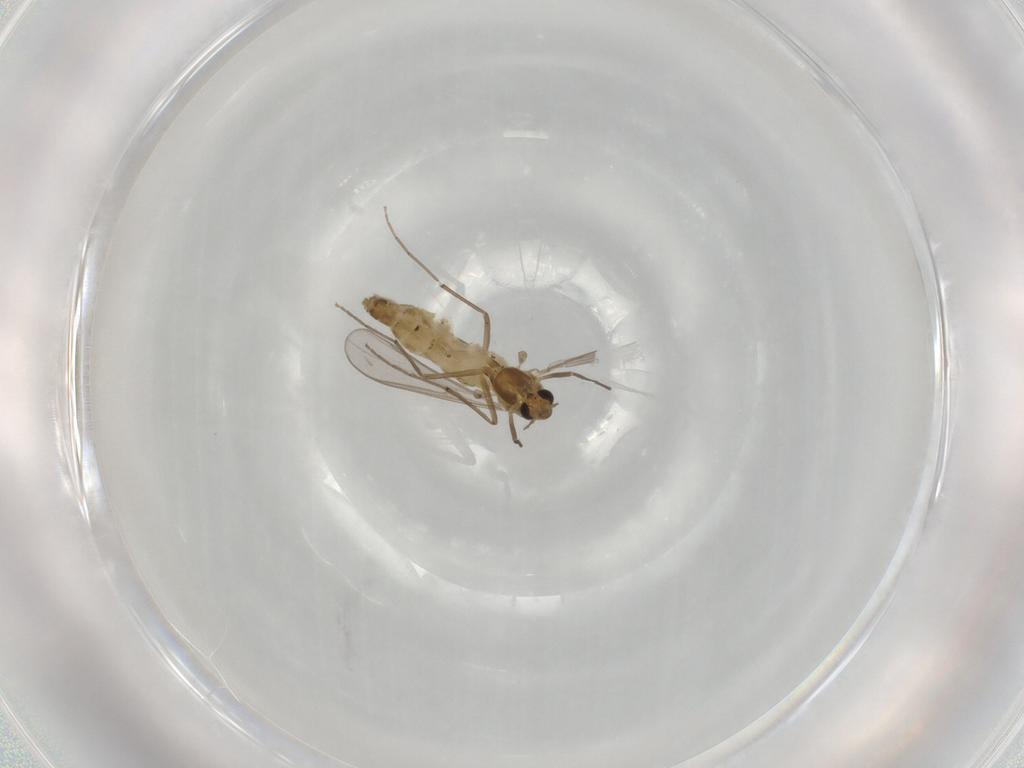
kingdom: Animalia
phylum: Arthropoda
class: Insecta
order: Diptera
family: Chironomidae
